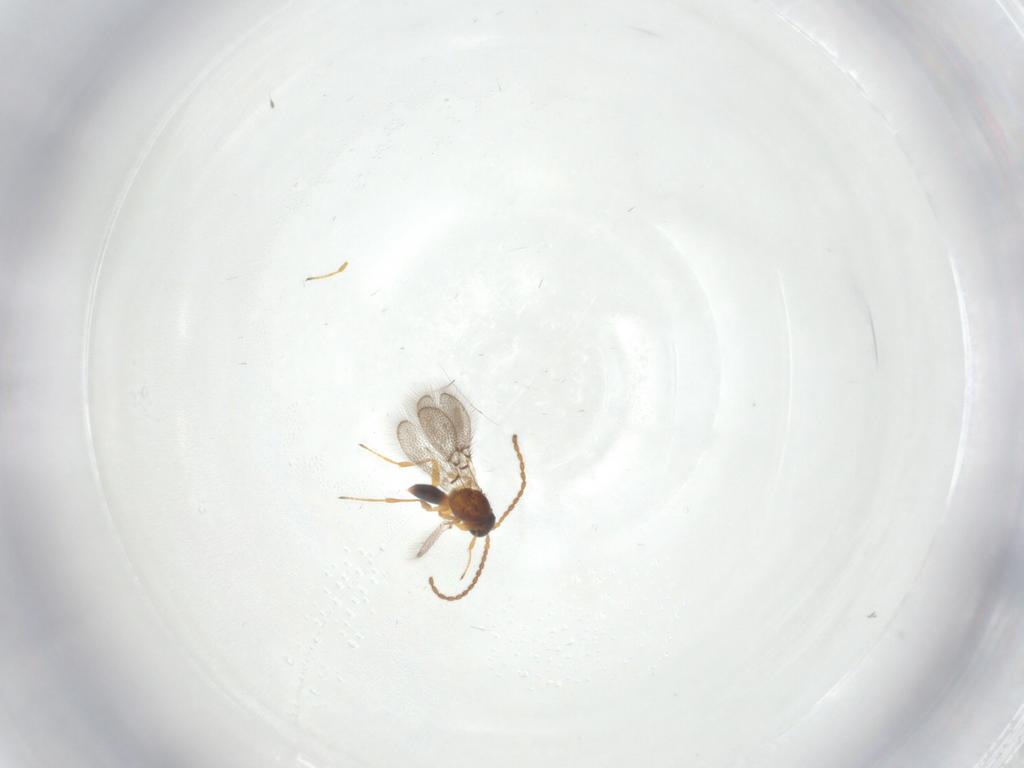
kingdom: Animalia
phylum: Arthropoda
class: Insecta
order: Hymenoptera
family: Figitidae
